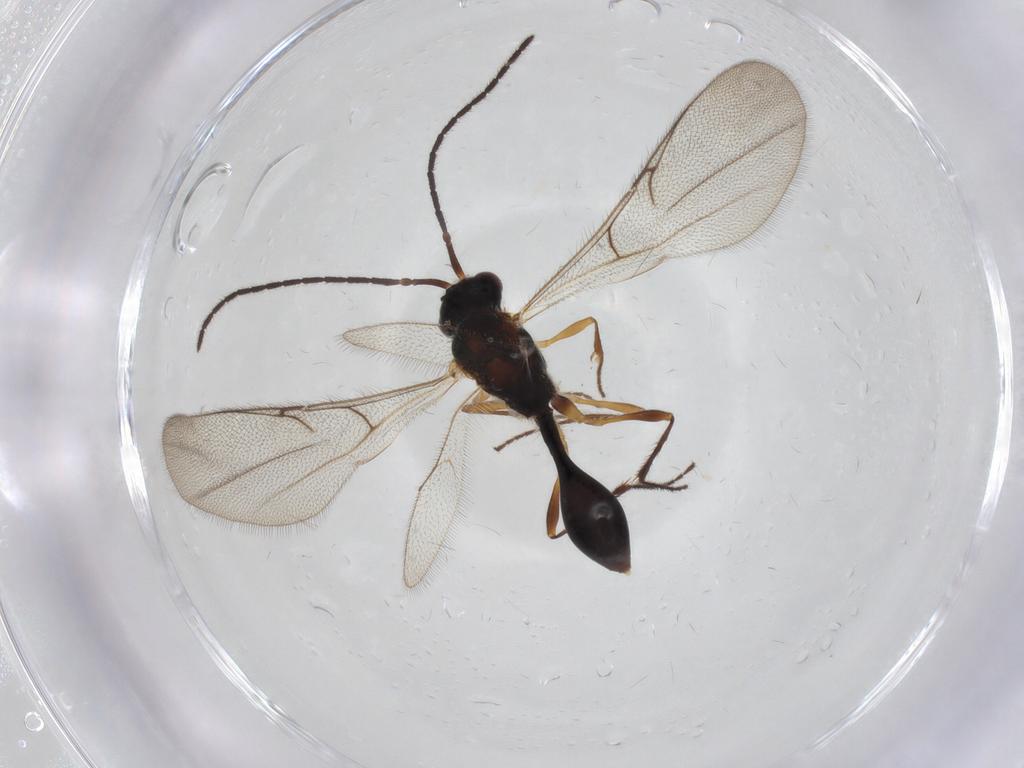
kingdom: Animalia
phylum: Arthropoda
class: Insecta
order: Hymenoptera
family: Diapriidae
